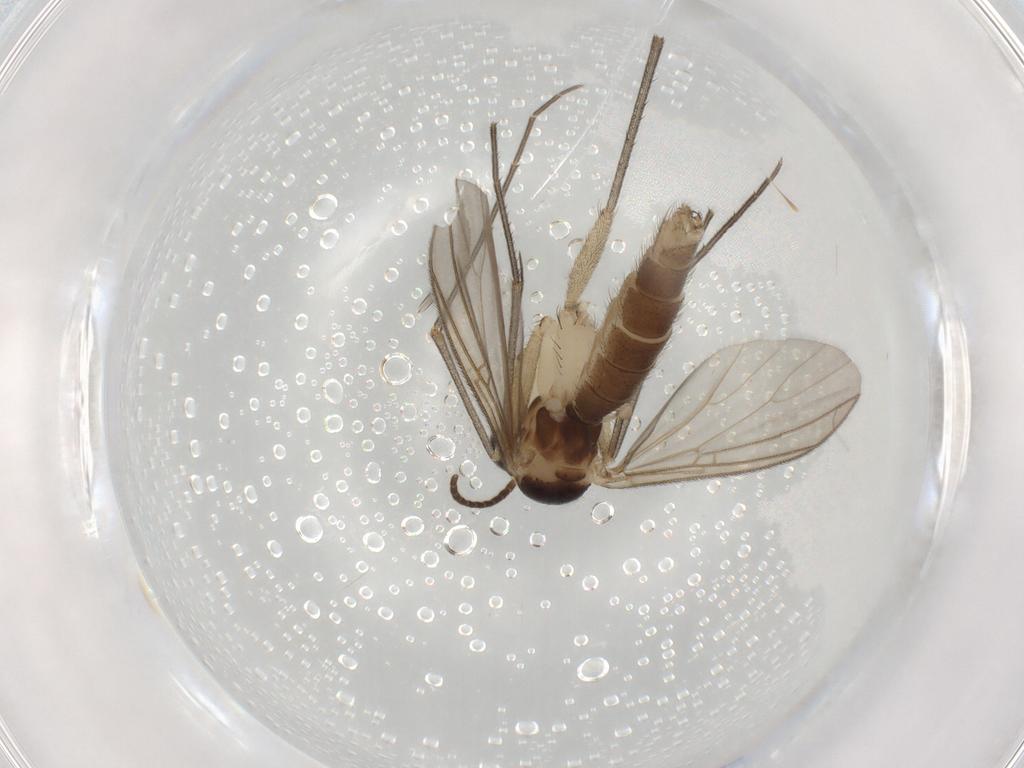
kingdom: Animalia
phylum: Arthropoda
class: Insecta
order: Diptera
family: Mycetophilidae
